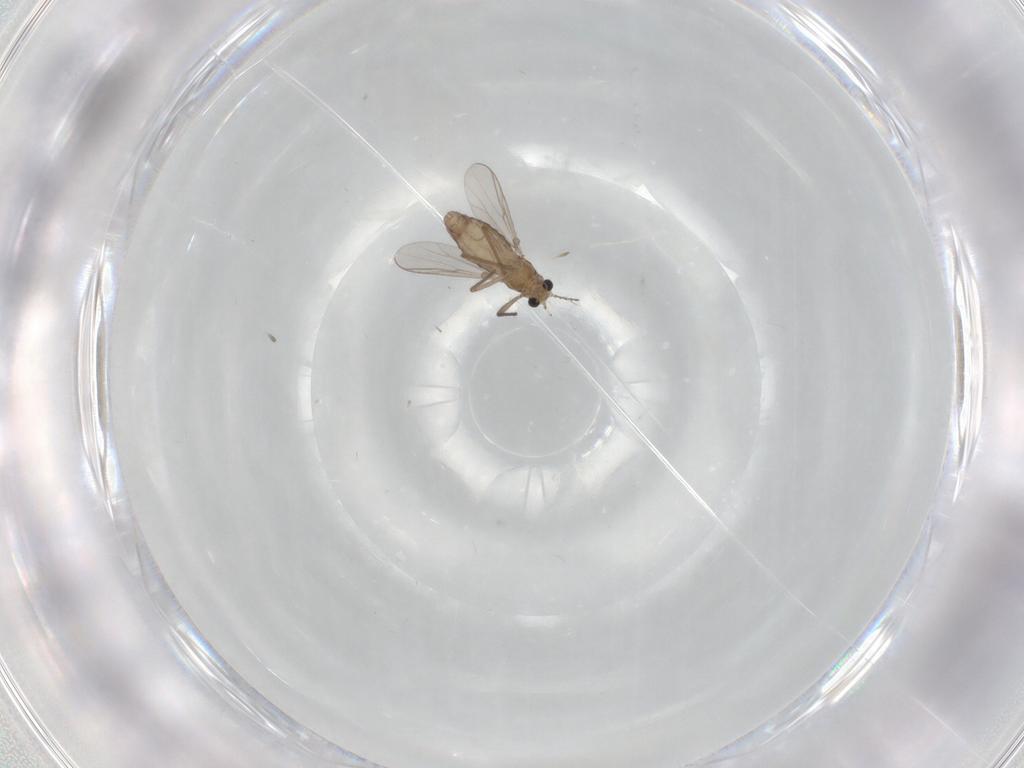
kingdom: Animalia
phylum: Arthropoda
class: Insecta
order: Diptera
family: Chironomidae
